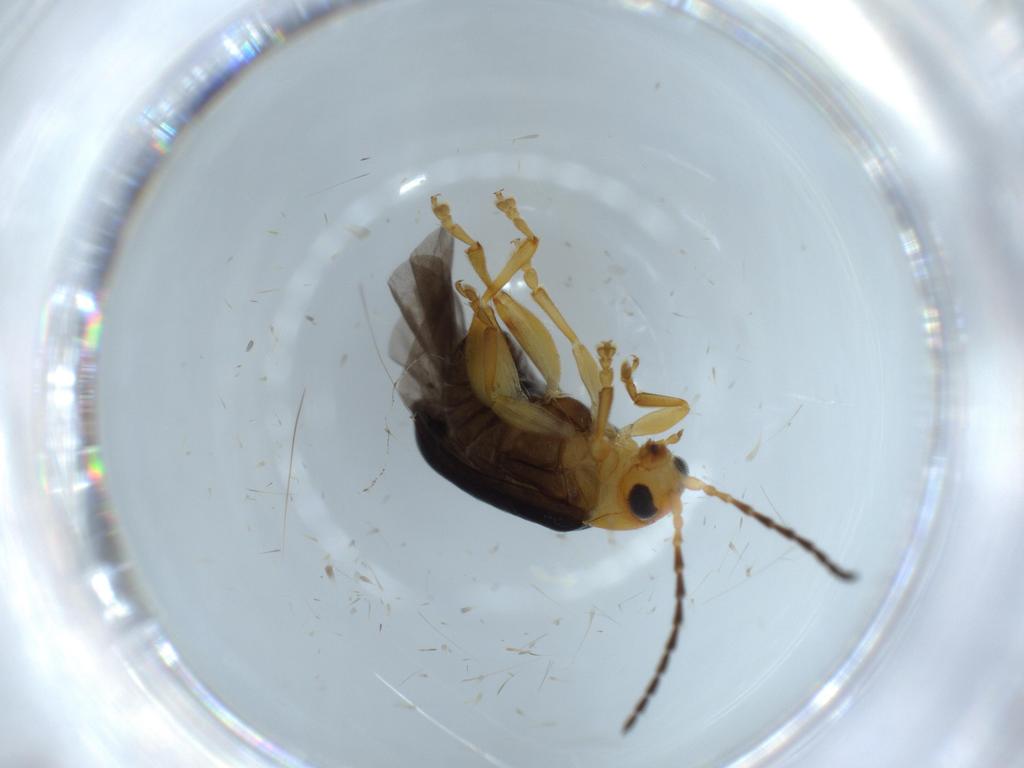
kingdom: Animalia
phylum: Arthropoda
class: Insecta
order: Coleoptera
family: Chrysomelidae
